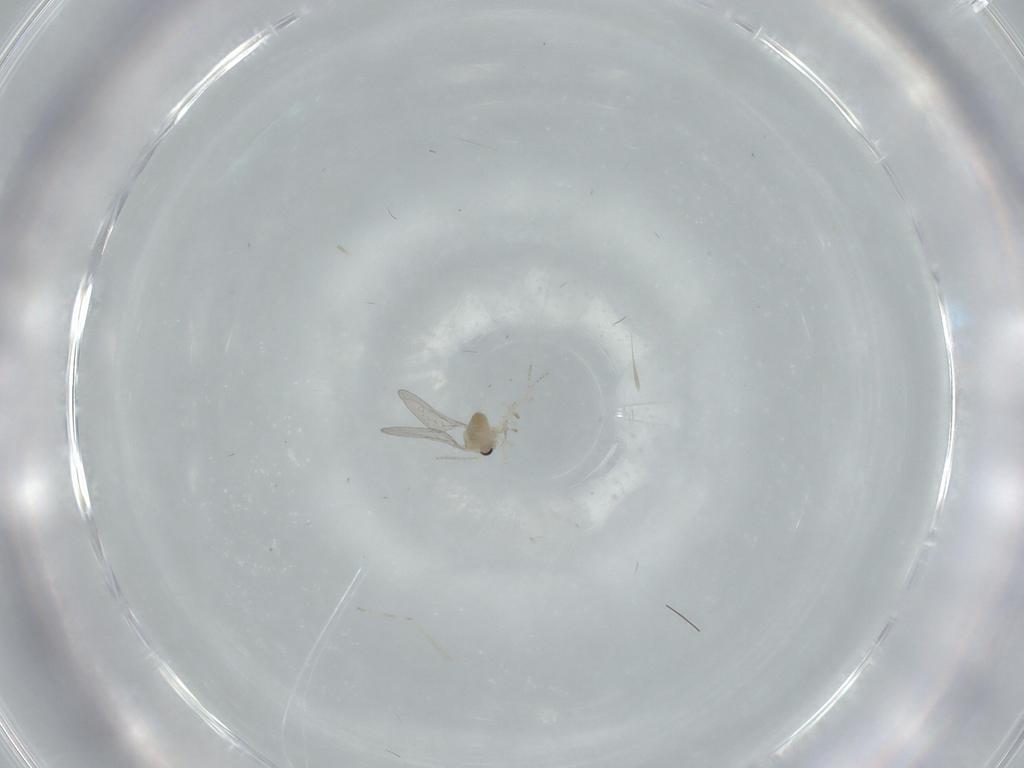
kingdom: Animalia
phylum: Arthropoda
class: Insecta
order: Diptera
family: Cecidomyiidae
